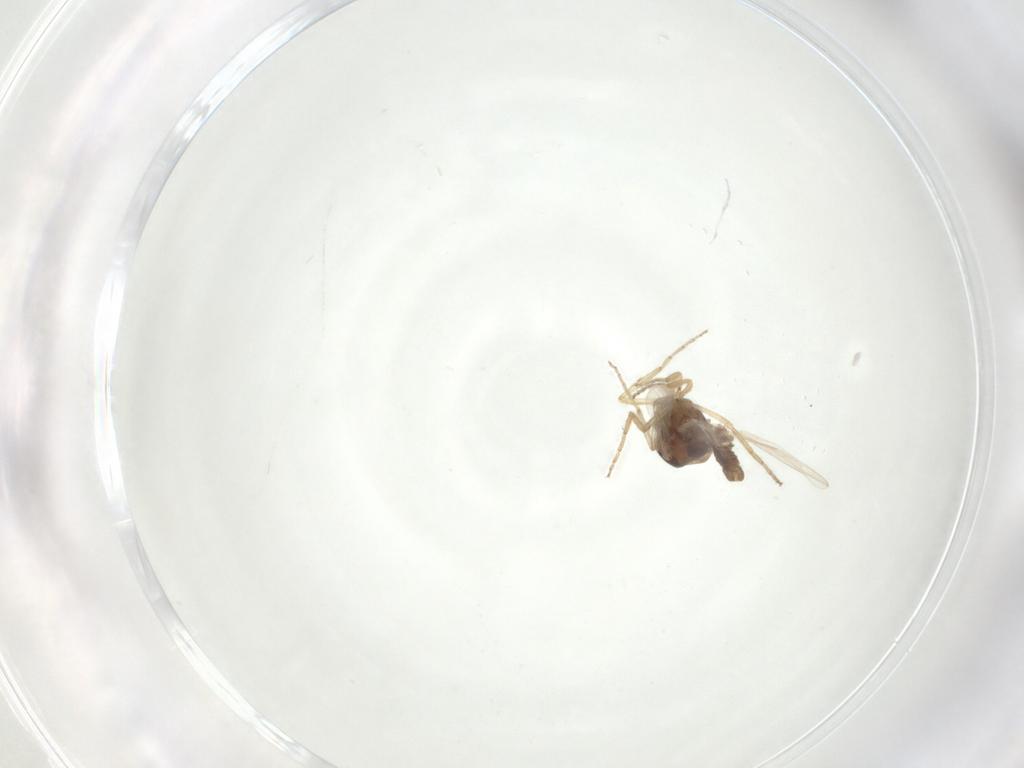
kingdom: Animalia
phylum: Arthropoda
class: Insecta
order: Diptera
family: Ceratopogonidae
